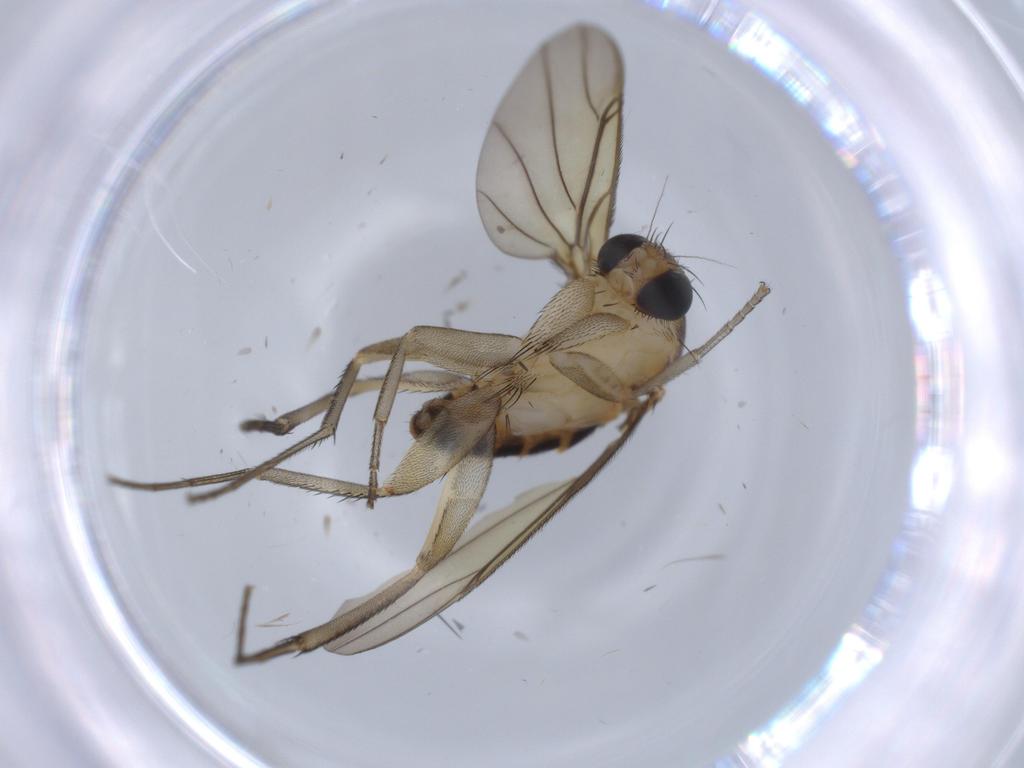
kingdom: Animalia
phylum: Arthropoda
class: Insecta
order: Diptera
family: Phoridae
